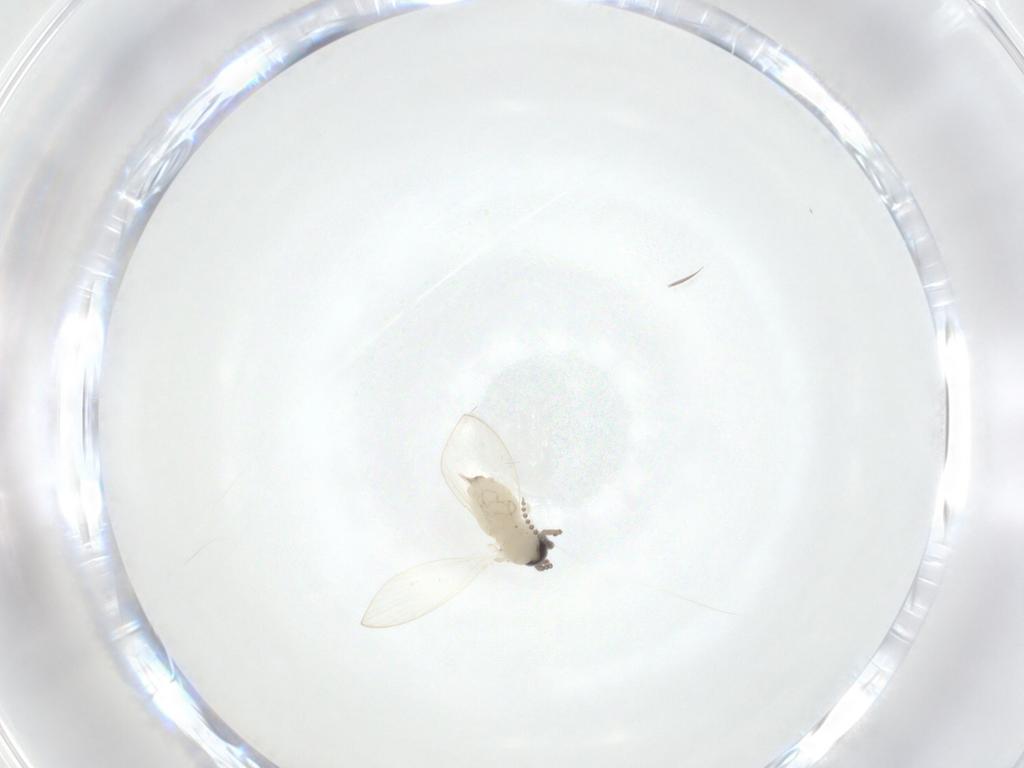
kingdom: Animalia
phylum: Arthropoda
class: Insecta
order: Diptera
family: Psychodidae
